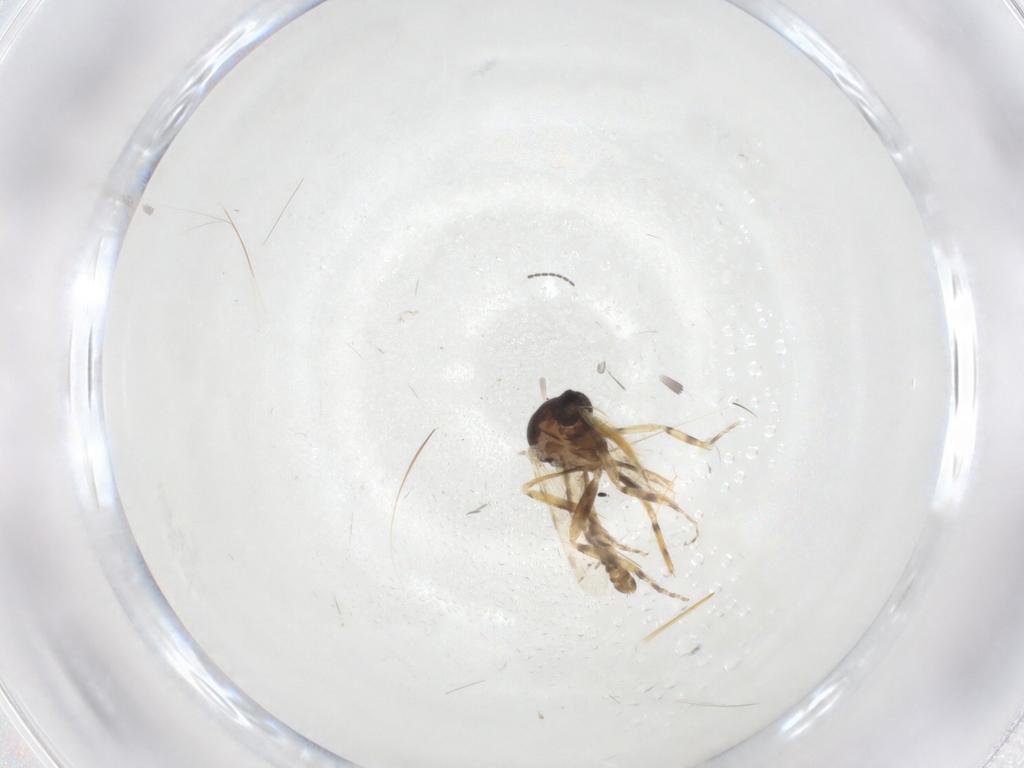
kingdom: Animalia
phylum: Arthropoda
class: Insecta
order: Diptera
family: Ceratopogonidae
